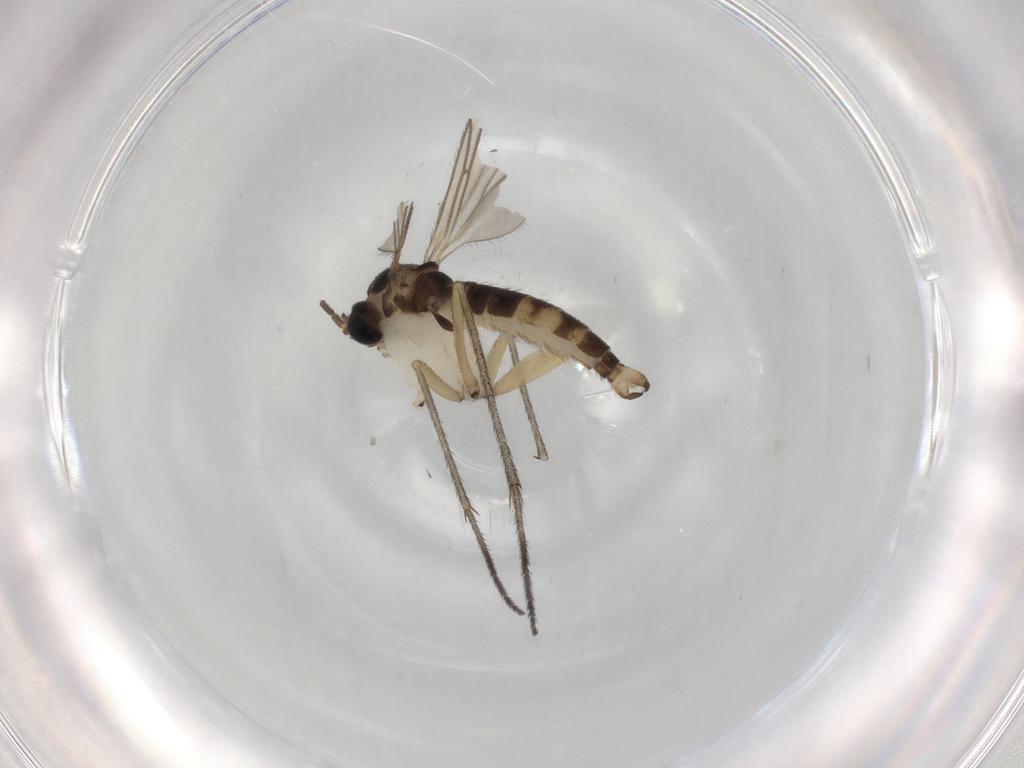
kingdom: Animalia
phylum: Arthropoda
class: Insecta
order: Diptera
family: Sciaridae
